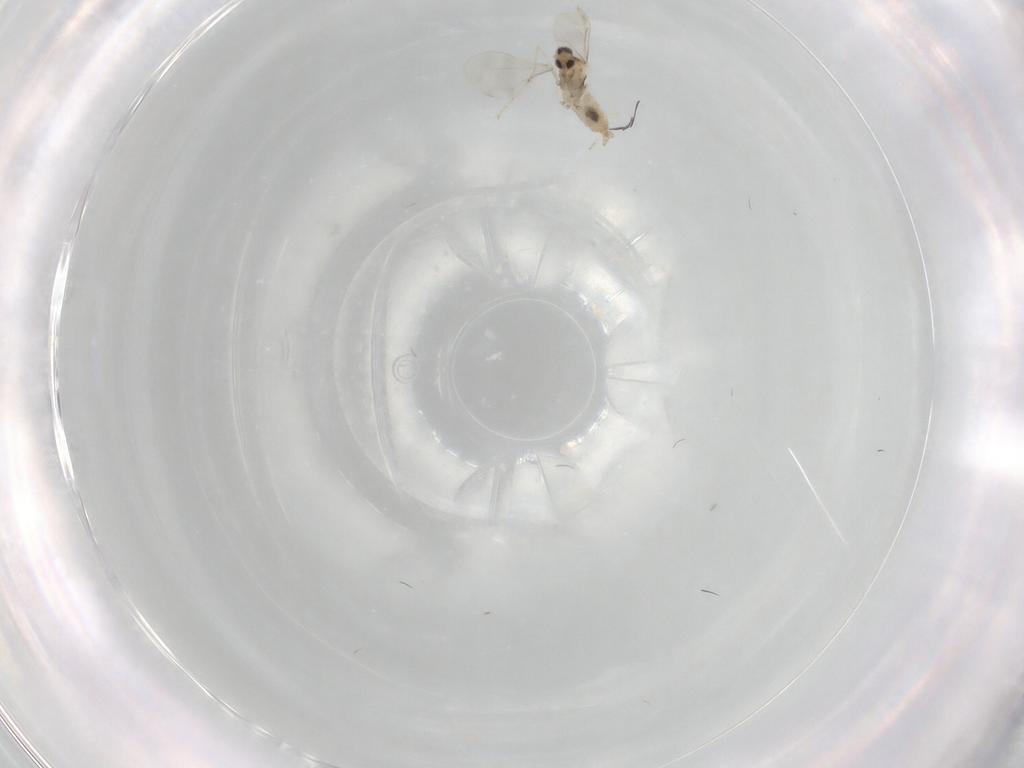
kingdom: Animalia
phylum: Arthropoda
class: Insecta
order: Diptera
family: Cecidomyiidae
